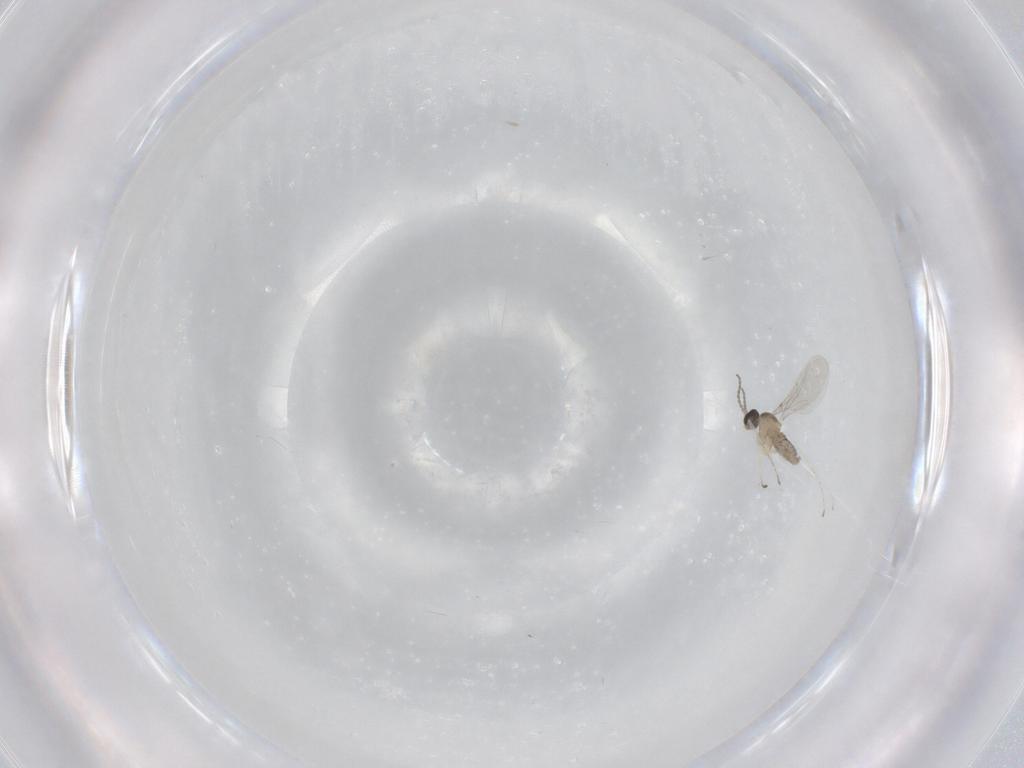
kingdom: Animalia
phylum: Arthropoda
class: Insecta
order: Diptera
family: Cecidomyiidae
